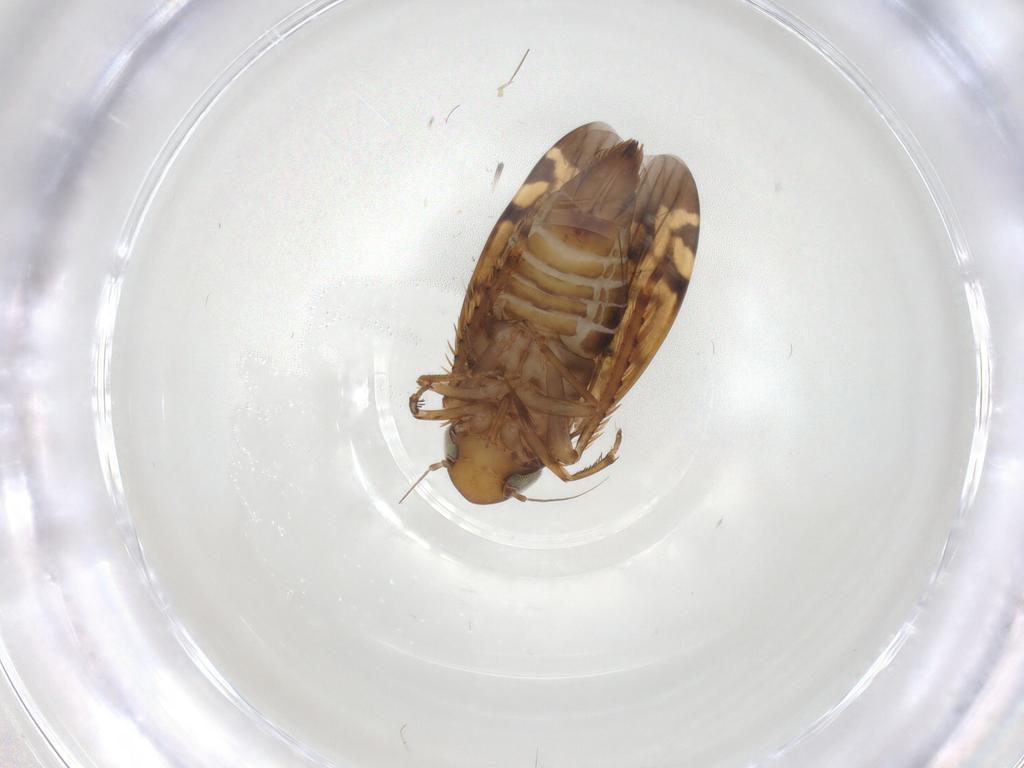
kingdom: Animalia
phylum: Arthropoda
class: Insecta
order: Hemiptera
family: Cicadellidae
